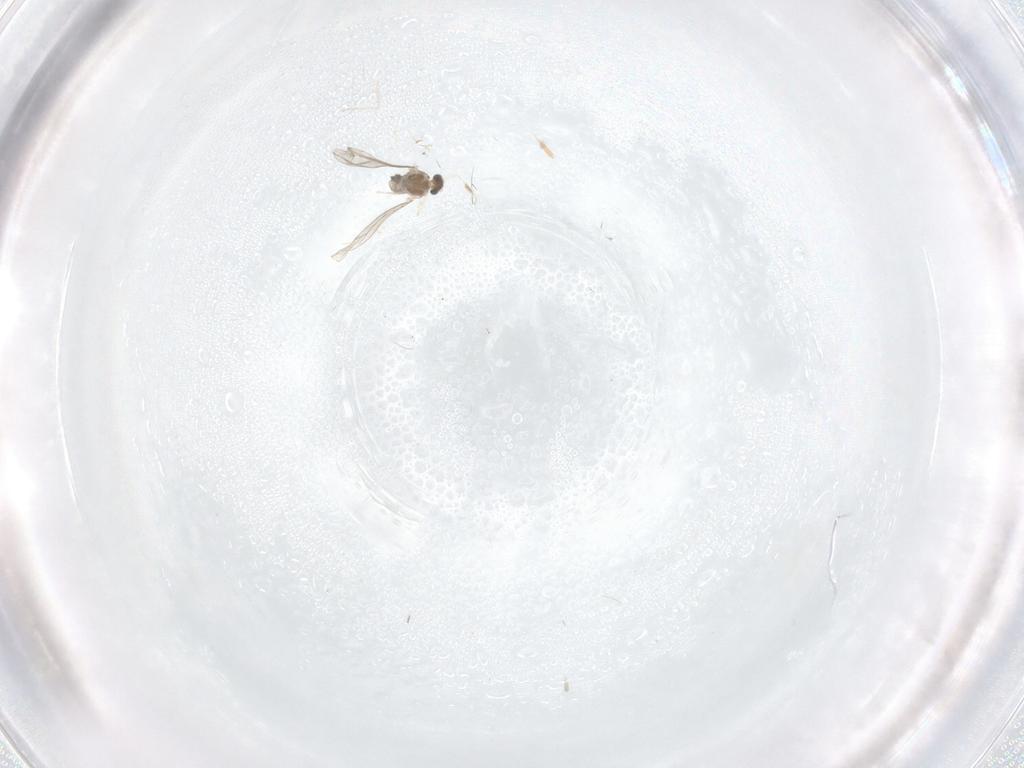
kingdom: Animalia
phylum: Arthropoda
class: Insecta
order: Diptera
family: Cecidomyiidae
